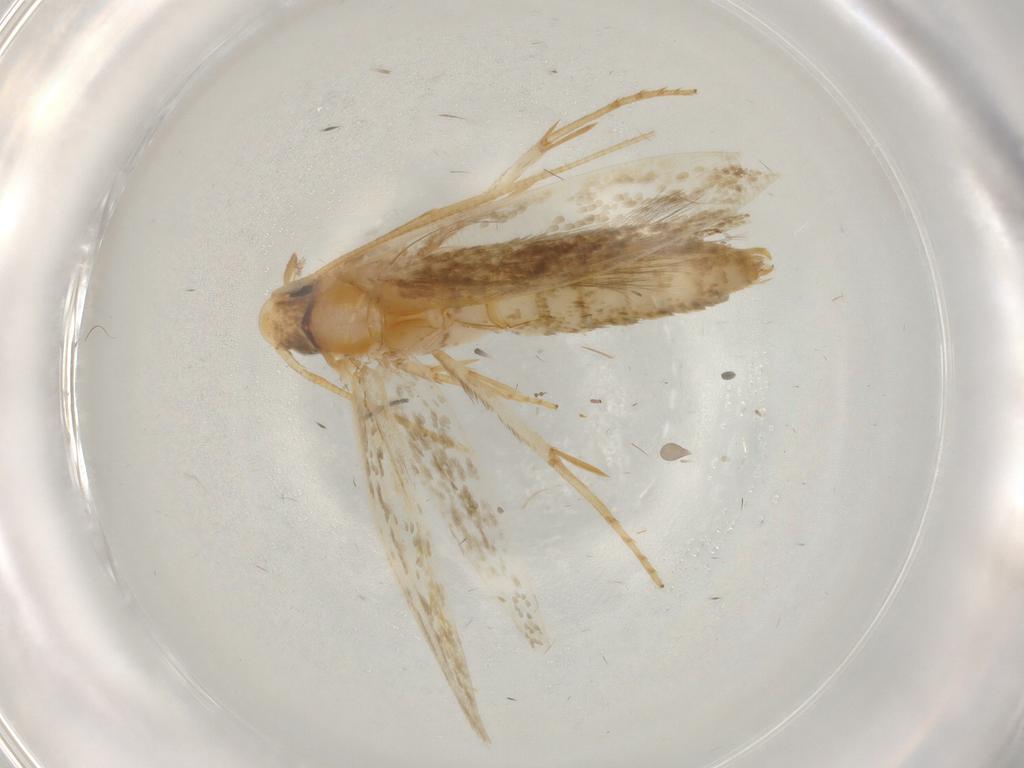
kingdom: Animalia
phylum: Arthropoda
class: Insecta
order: Lepidoptera
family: Tineidae
